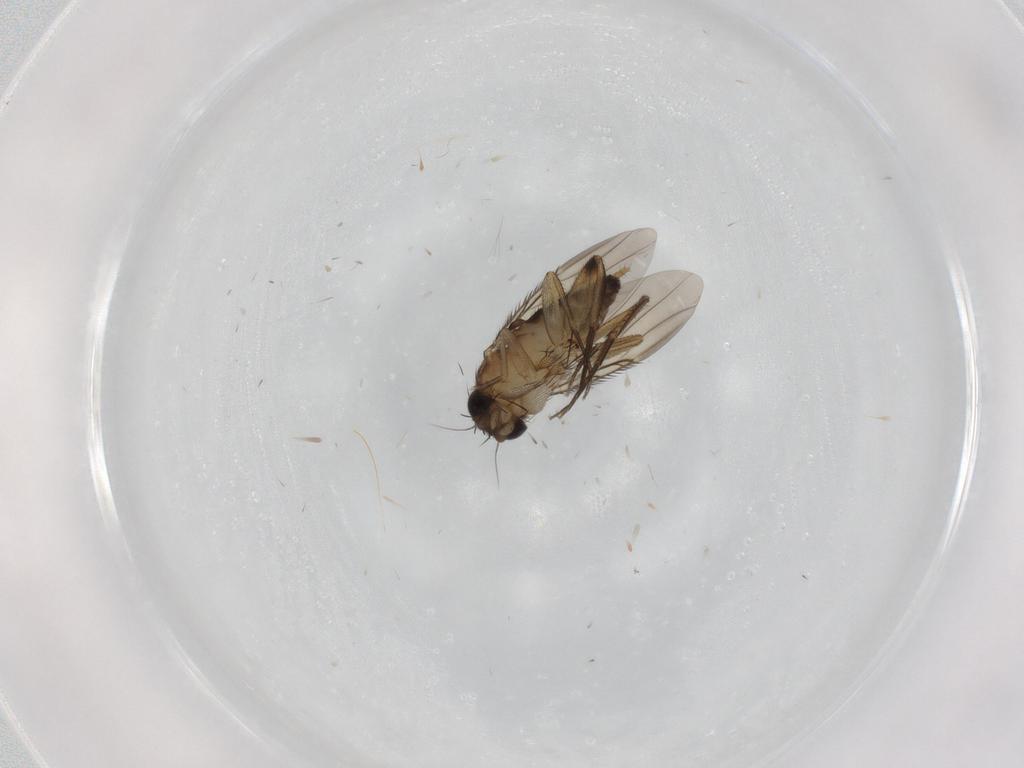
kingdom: Animalia
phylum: Arthropoda
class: Insecta
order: Diptera
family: Phoridae
